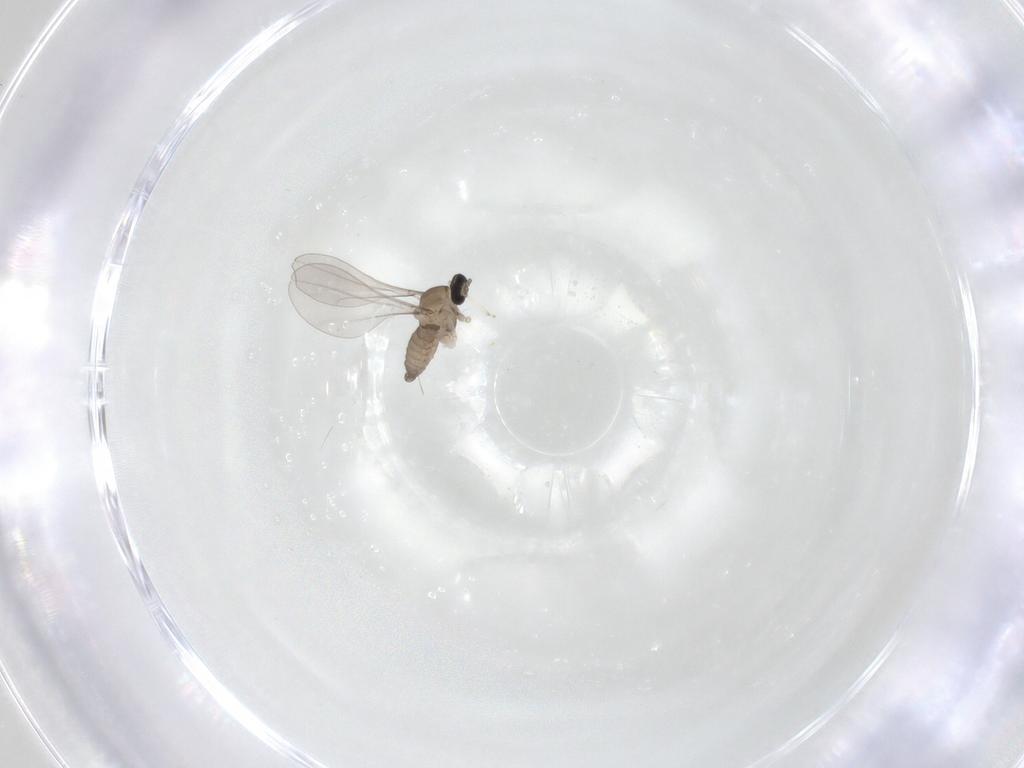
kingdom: Animalia
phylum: Arthropoda
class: Insecta
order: Diptera
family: Cecidomyiidae
